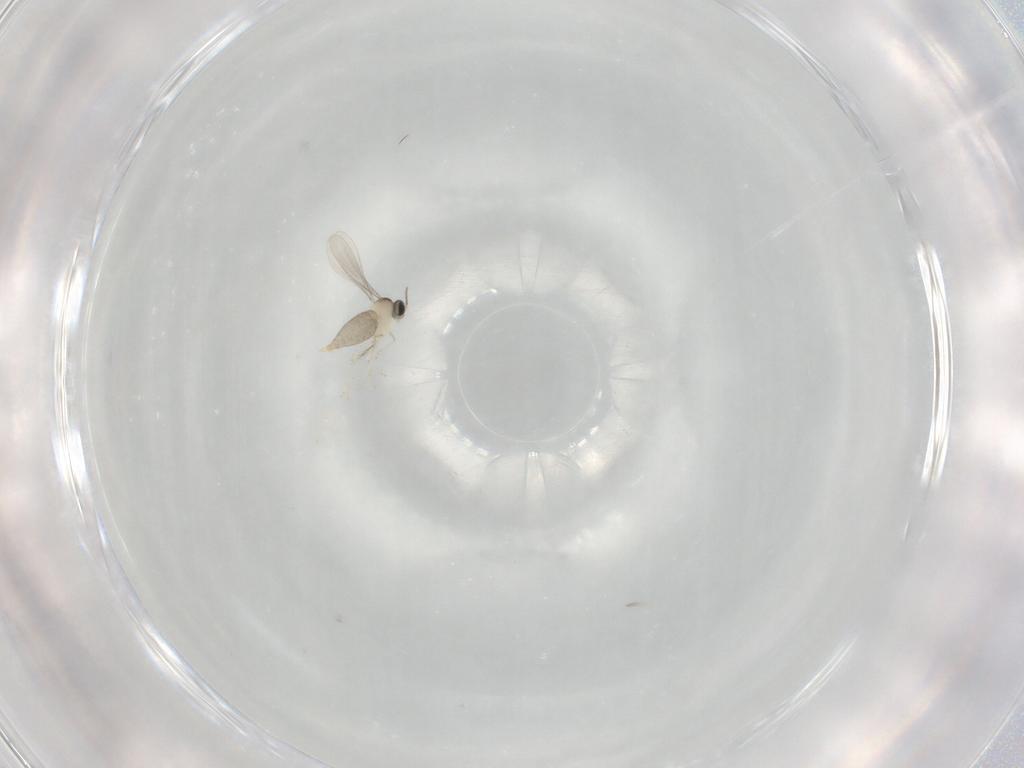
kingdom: Animalia
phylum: Arthropoda
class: Insecta
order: Diptera
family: Cecidomyiidae
